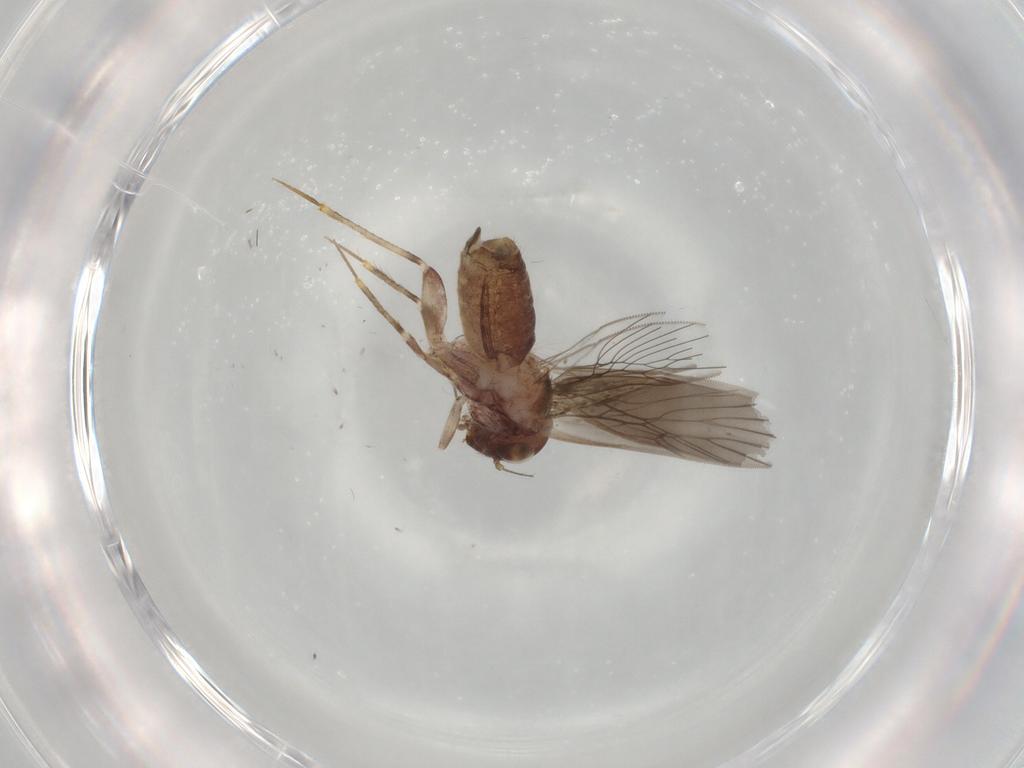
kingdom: Animalia
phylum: Arthropoda
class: Insecta
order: Psocodea
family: Lepidopsocidae
